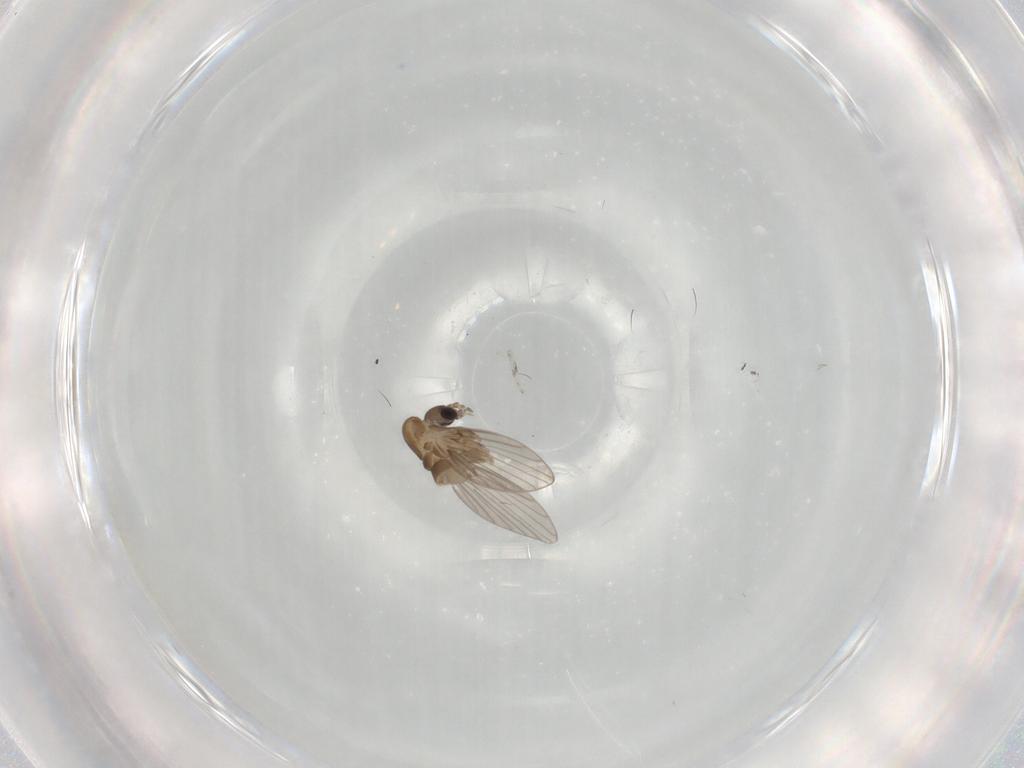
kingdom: Animalia
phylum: Arthropoda
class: Insecta
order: Diptera
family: Psychodidae
